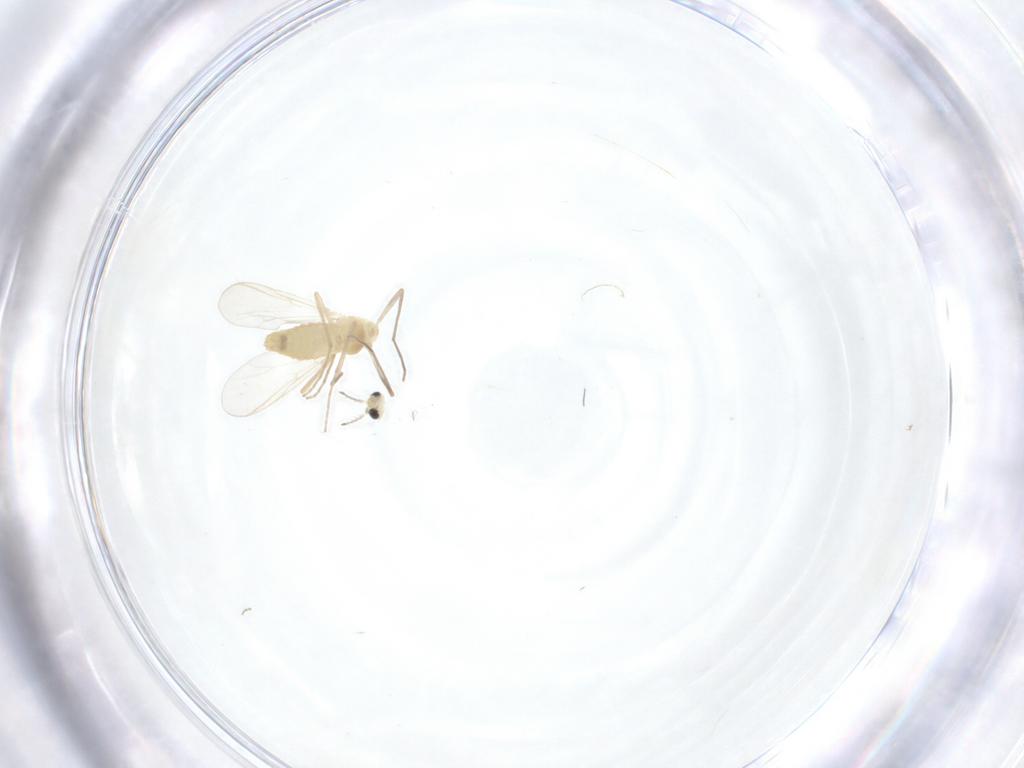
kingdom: Animalia
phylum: Arthropoda
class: Insecta
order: Diptera
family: Chironomidae
